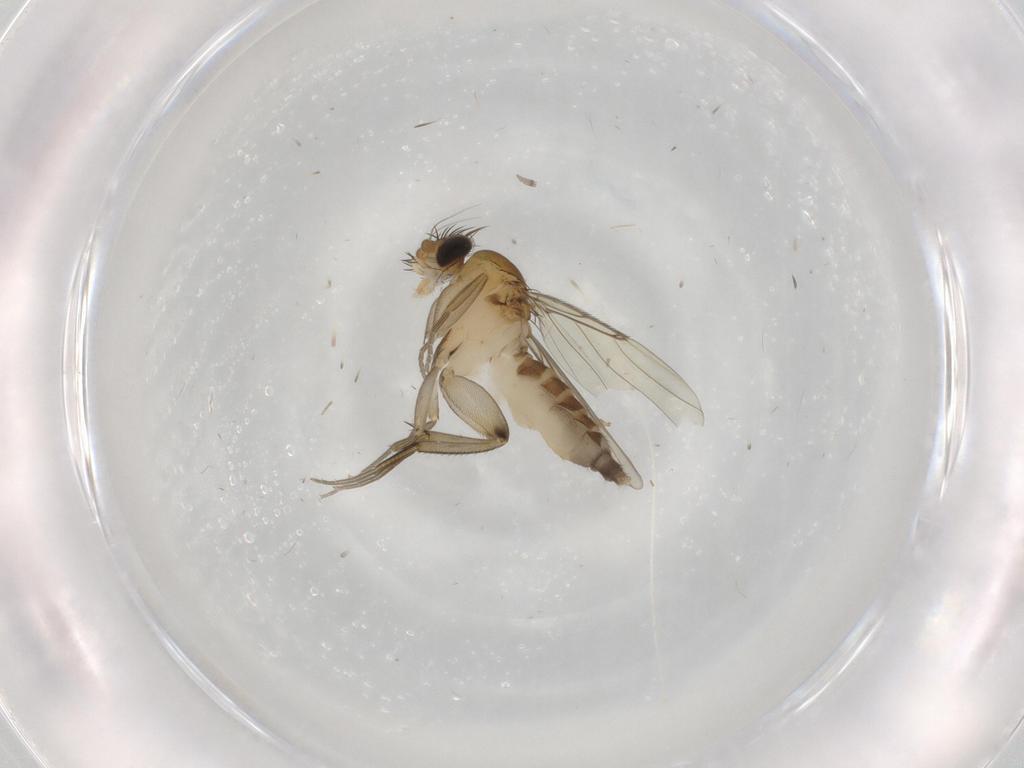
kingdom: Animalia
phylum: Arthropoda
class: Insecta
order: Diptera
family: Phoridae
